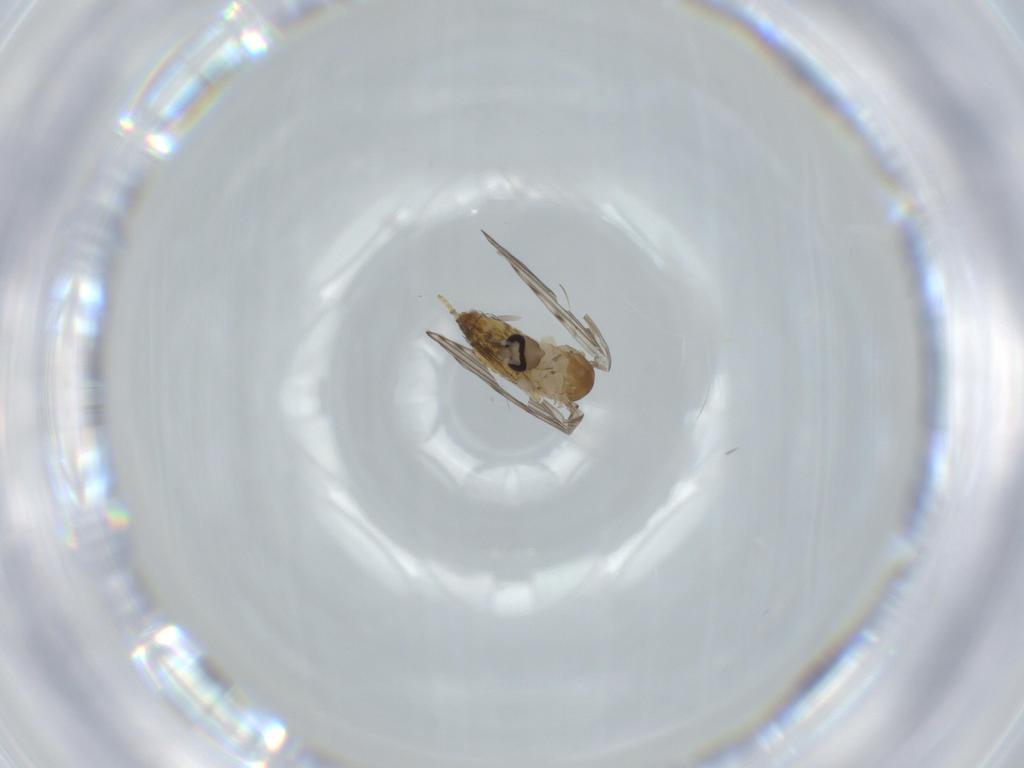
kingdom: Animalia
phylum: Arthropoda
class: Insecta
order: Diptera
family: Psychodidae
